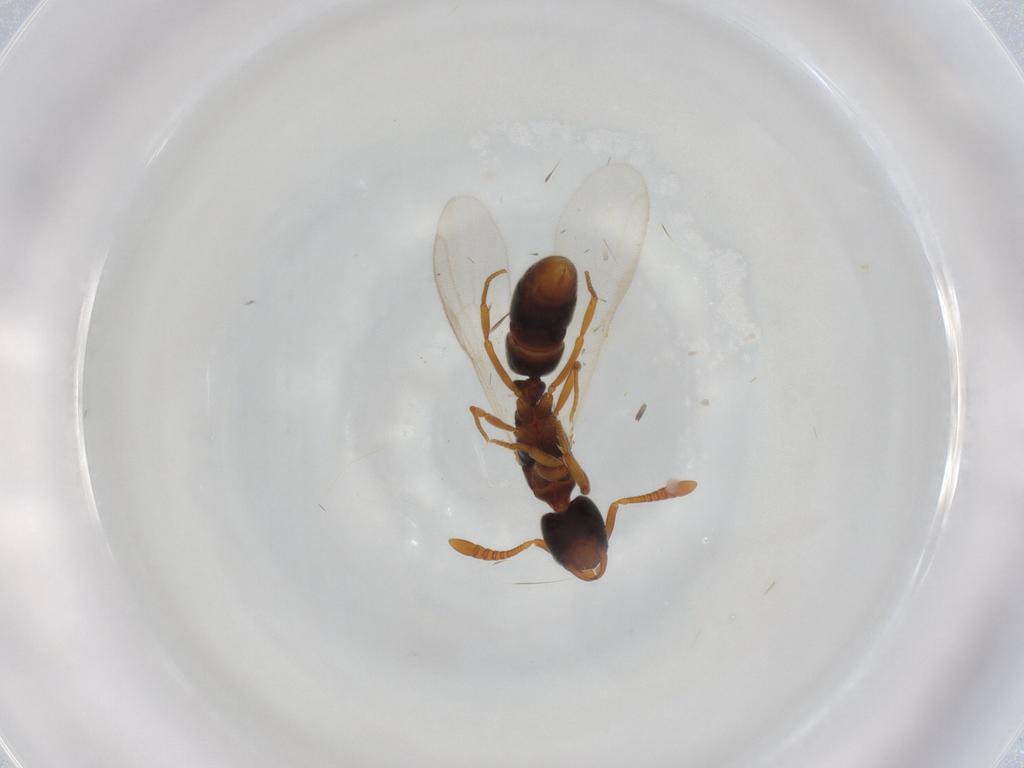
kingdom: Animalia
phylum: Arthropoda
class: Insecta
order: Hymenoptera
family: Formicidae
